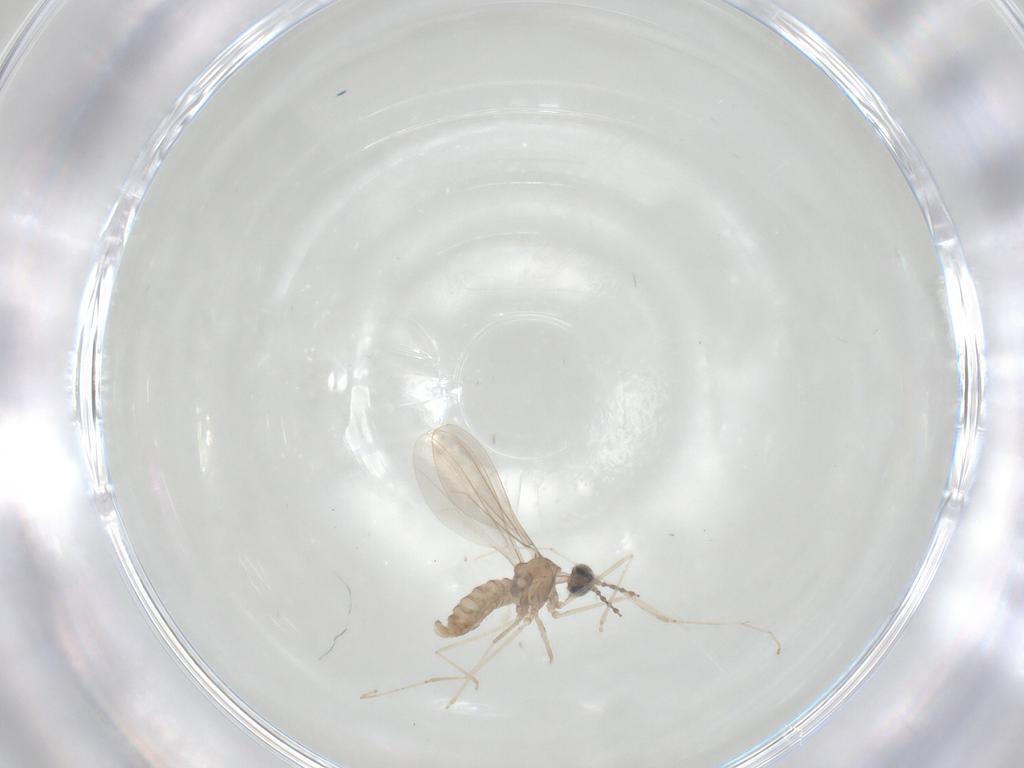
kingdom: Animalia
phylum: Arthropoda
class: Insecta
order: Diptera
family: Cecidomyiidae
